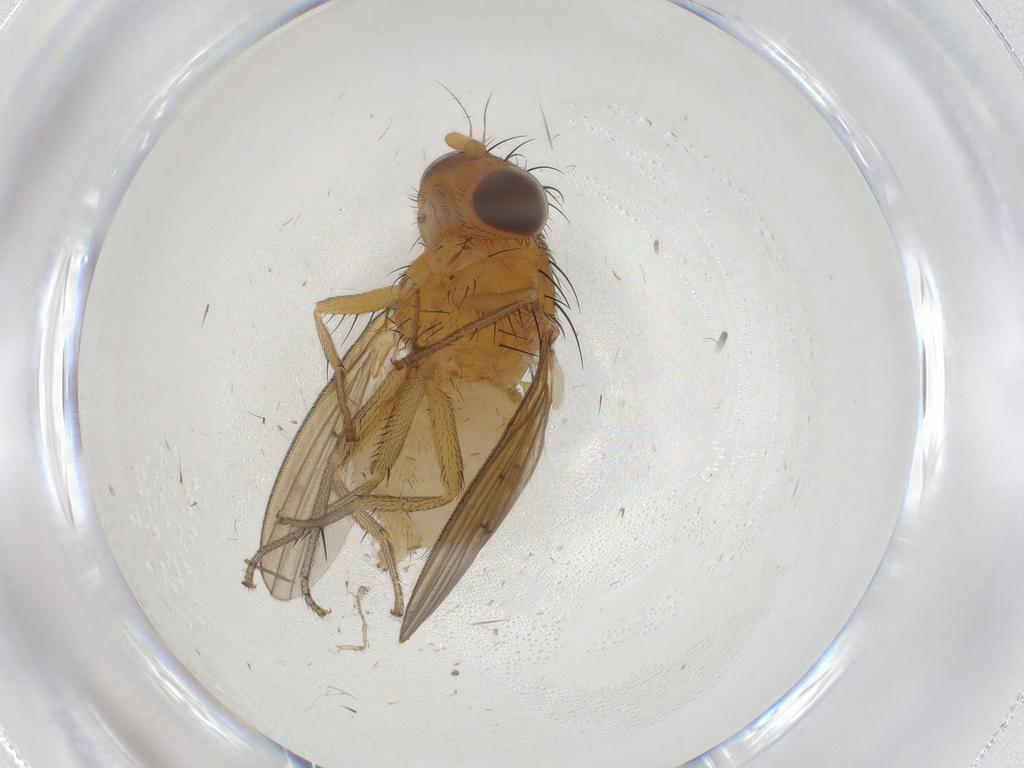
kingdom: Animalia
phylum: Arthropoda
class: Insecta
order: Diptera
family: Chironomidae
